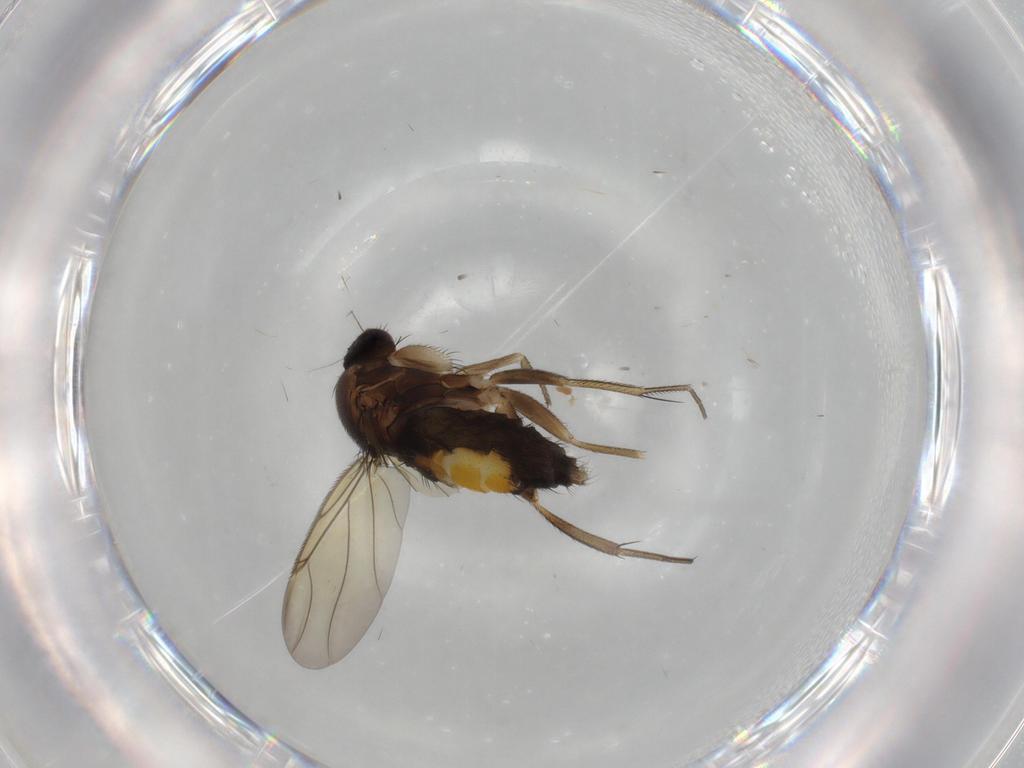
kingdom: Animalia
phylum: Arthropoda
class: Insecta
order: Diptera
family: Phoridae
